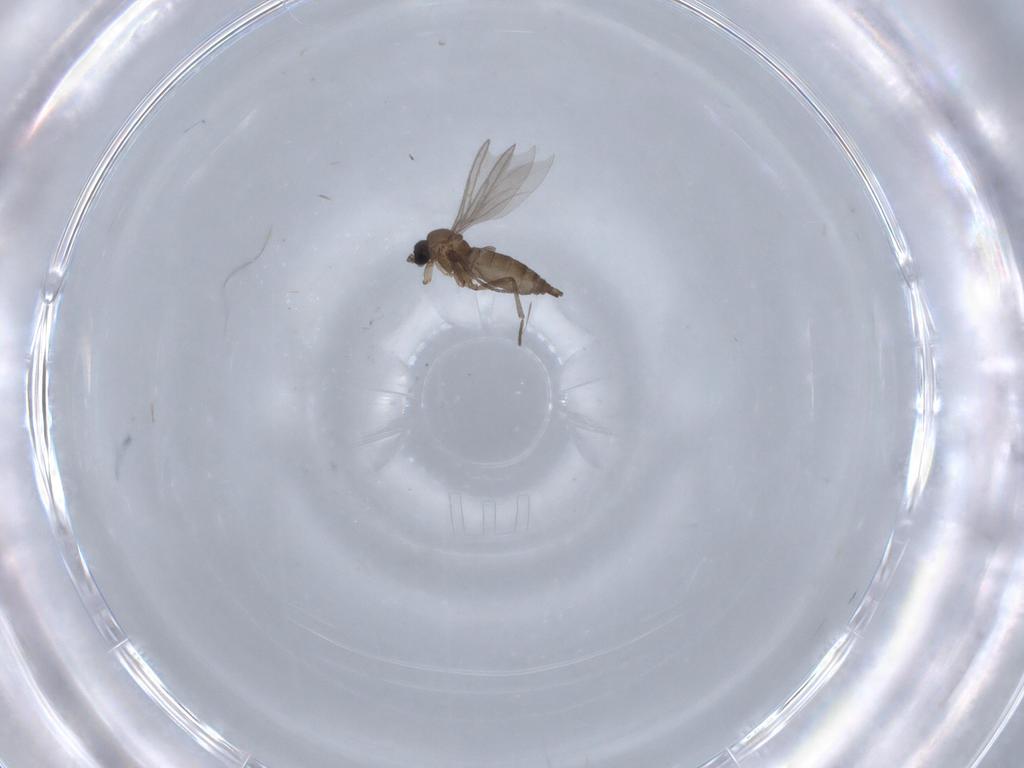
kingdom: Animalia
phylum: Arthropoda
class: Insecta
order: Diptera
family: Sciaridae
